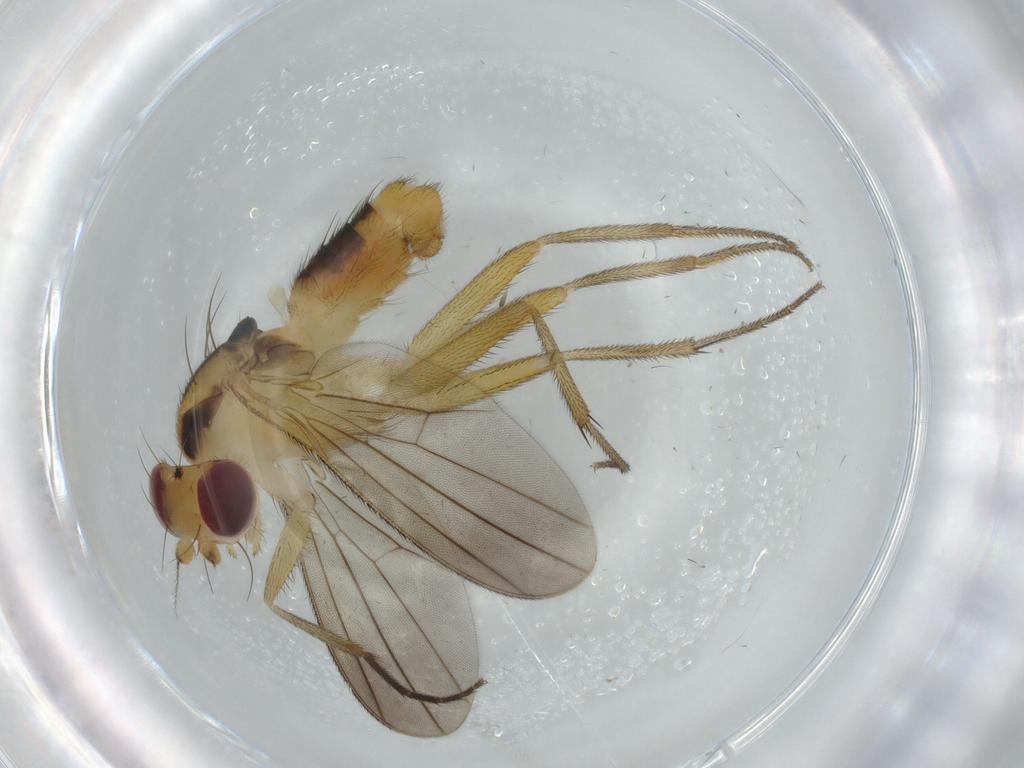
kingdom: Animalia
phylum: Arthropoda
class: Insecta
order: Diptera
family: Clusiidae
